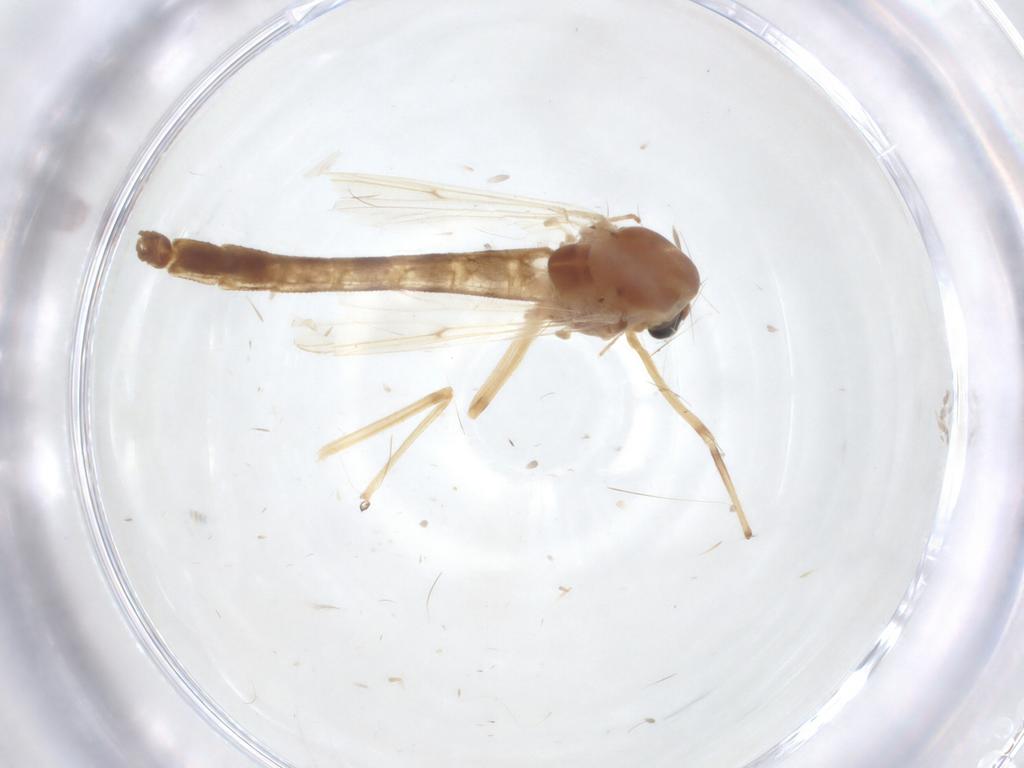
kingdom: Animalia
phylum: Arthropoda
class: Insecta
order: Diptera
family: Chironomidae
